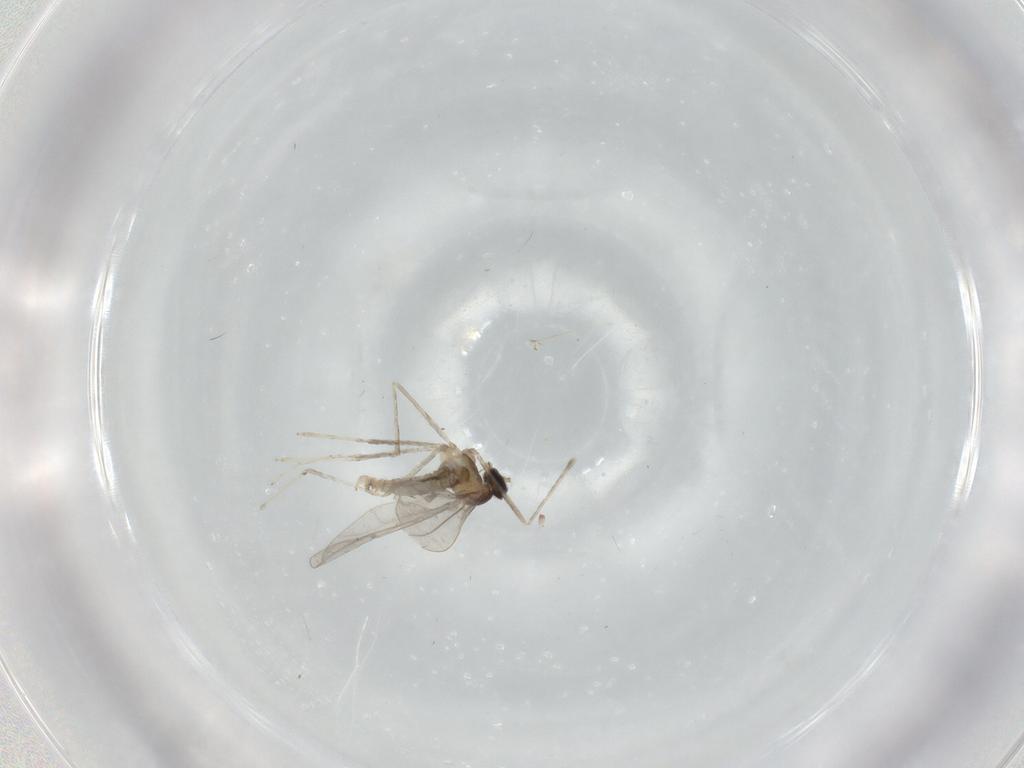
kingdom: Animalia
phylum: Arthropoda
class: Insecta
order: Diptera
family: Cecidomyiidae
